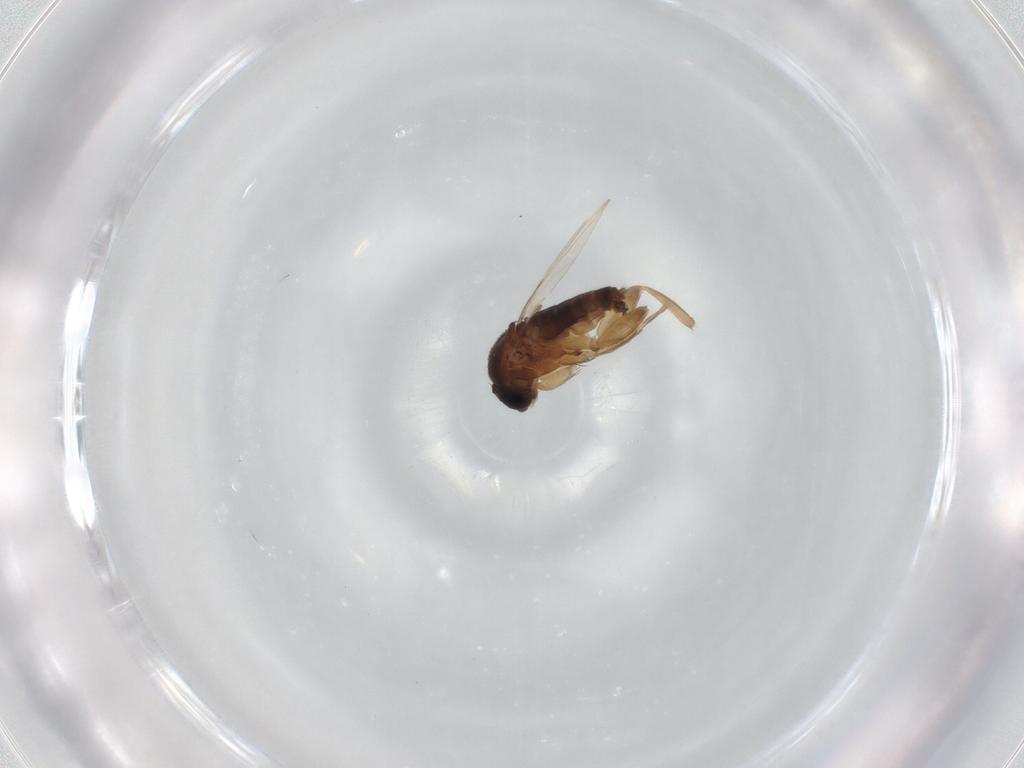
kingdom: Animalia
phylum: Arthropoda
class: Insecta
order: Diptera
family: Phoridae
